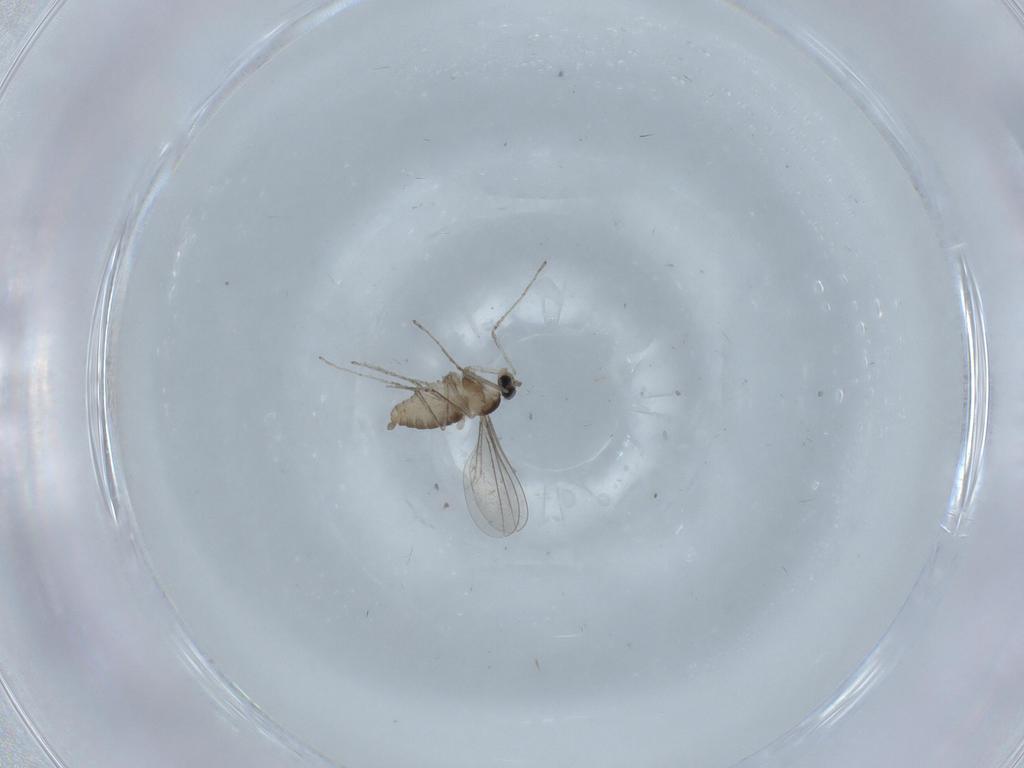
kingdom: Animalia
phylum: Arthropoda
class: Insecta
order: Diptera
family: Cecidomyiidae
